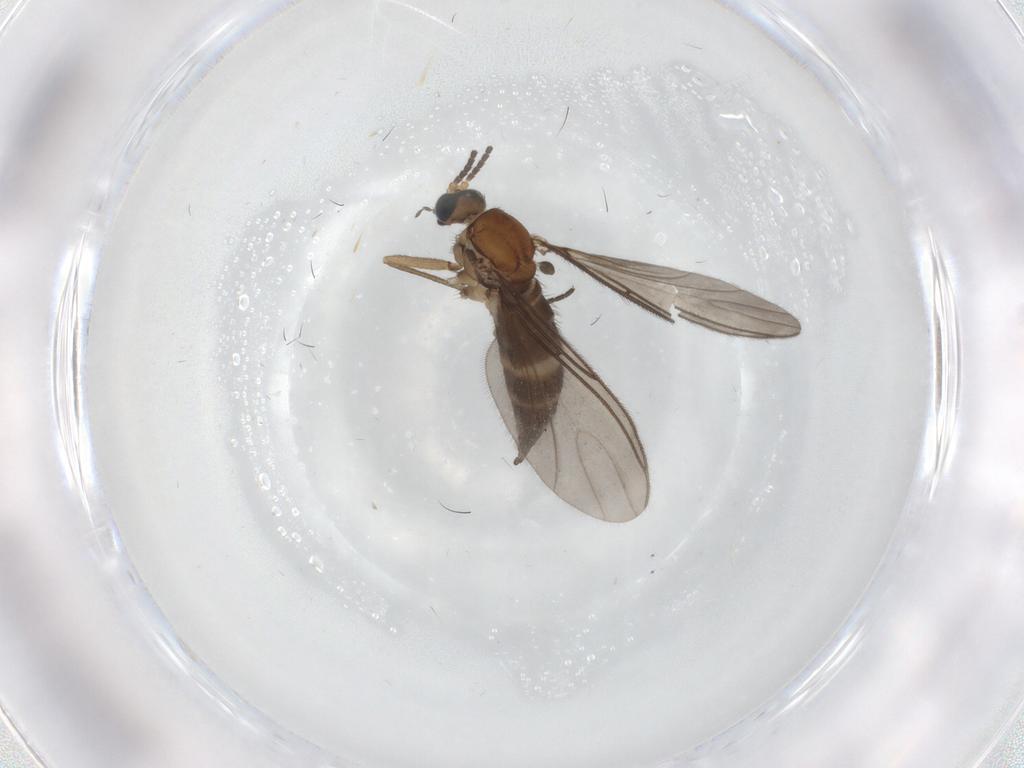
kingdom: Animalia
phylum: Arthropoda
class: Insecta
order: Diptera
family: Sciaridae
